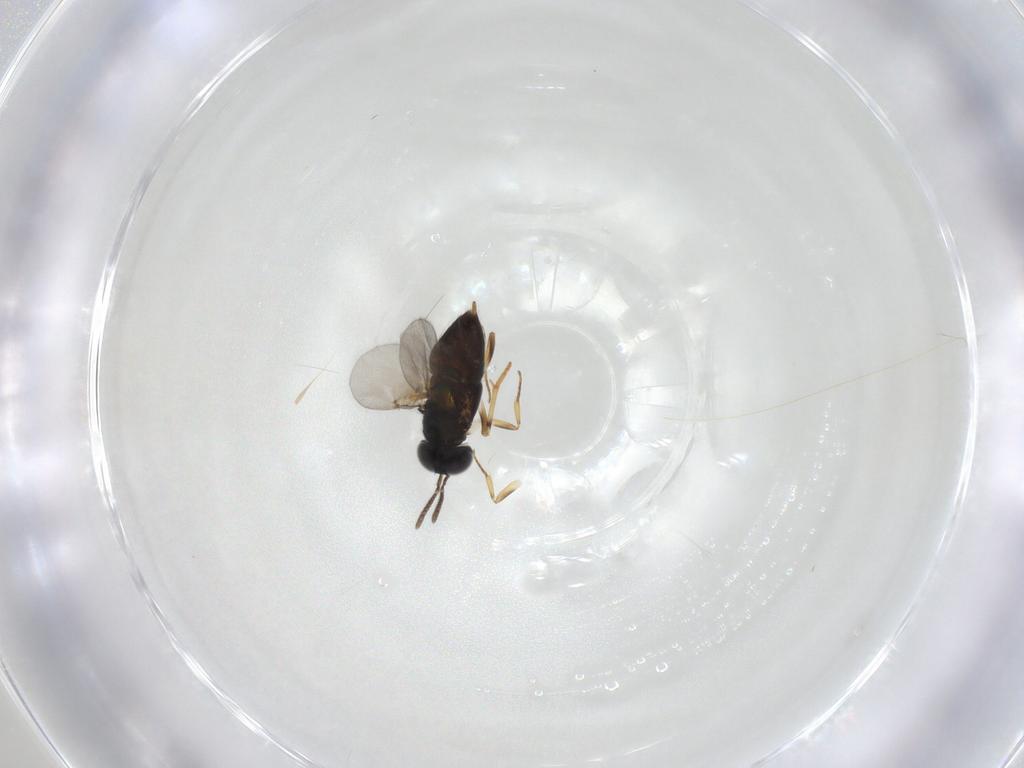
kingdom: Animalia
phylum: Arthropoda
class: Insecta
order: Hymenoptera
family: Encyrtidae
